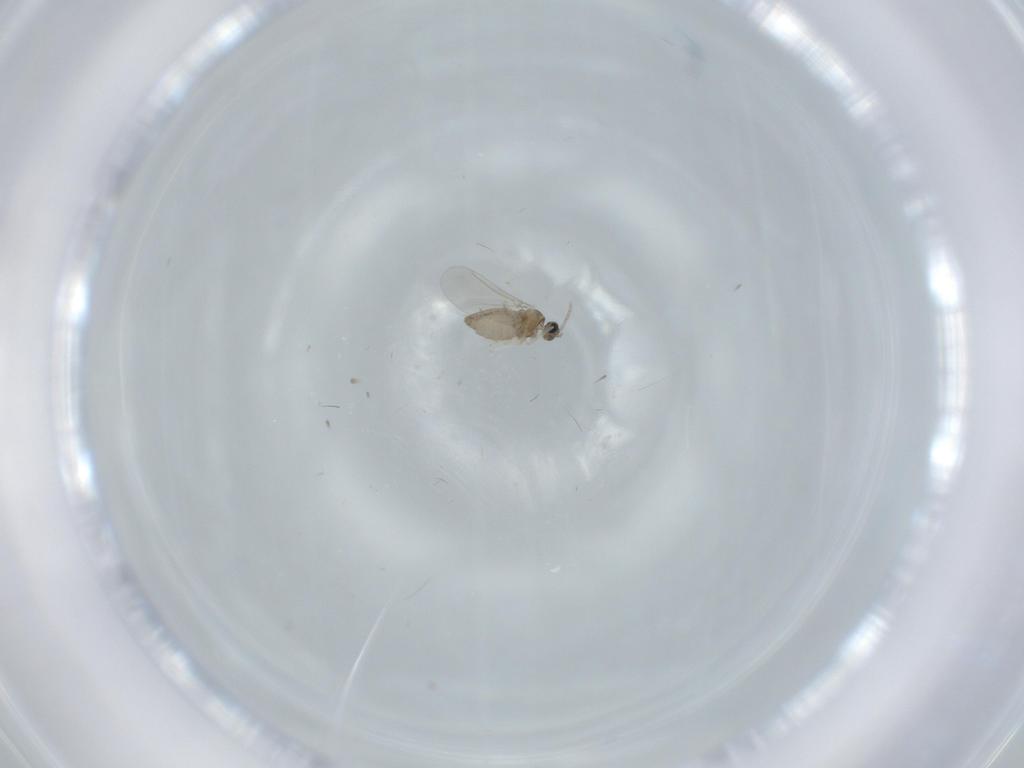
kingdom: Animalia
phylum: Arthropoda
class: Insecta
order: Diptera
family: Cecidomyiidae
